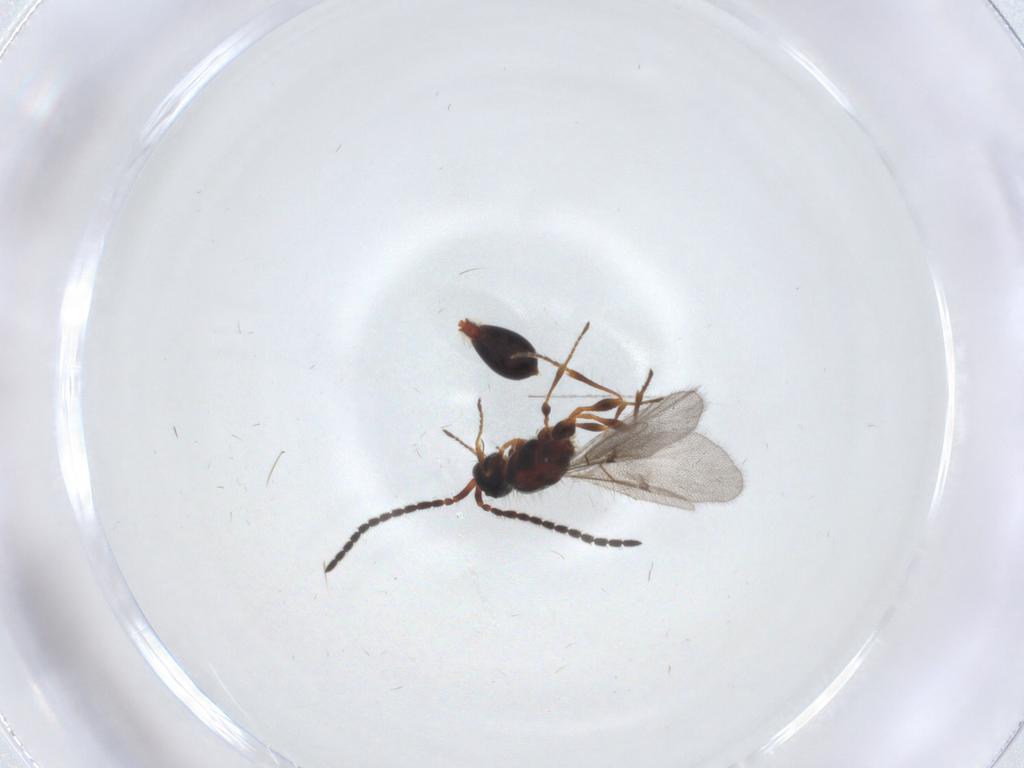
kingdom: Animalia
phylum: Arthropoda
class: Insecta
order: Hymenoptera
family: Diapriidae
